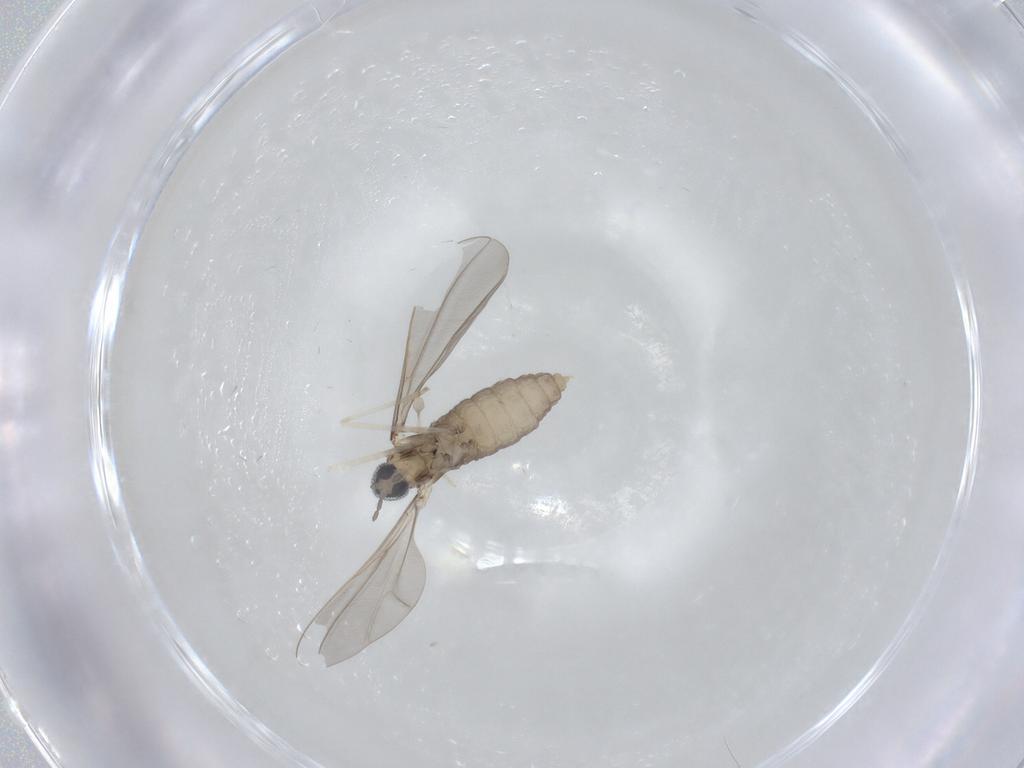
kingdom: Animalia
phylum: Arthropoda
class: Insecta
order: Diptera
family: Cecidomyiidae
